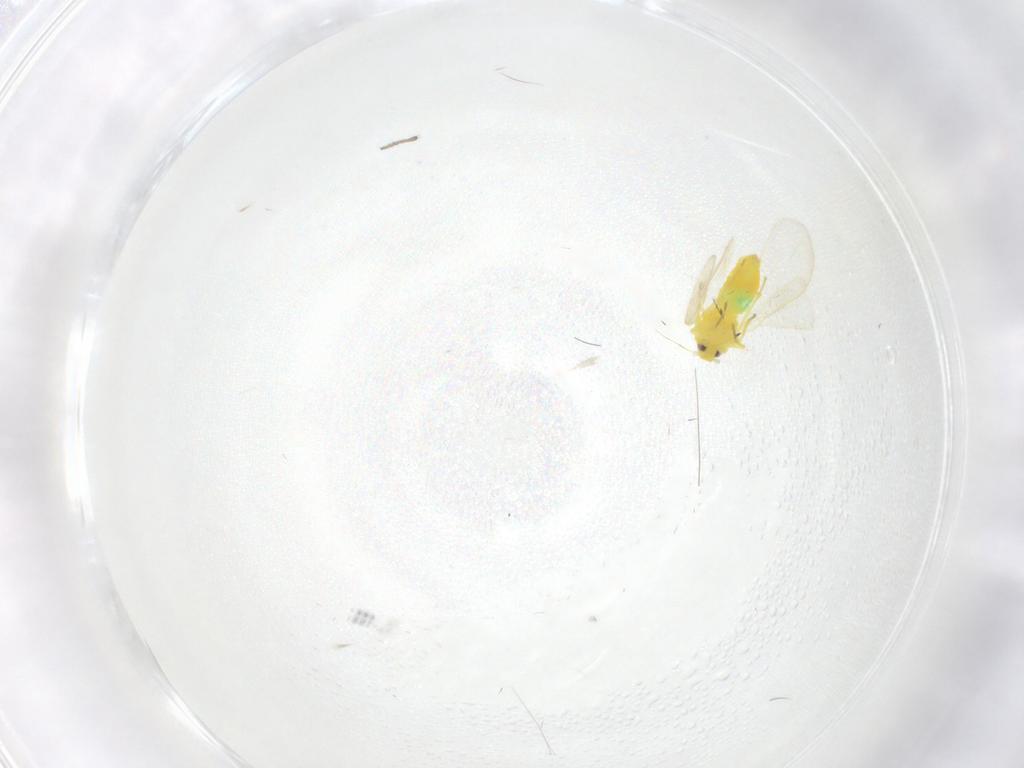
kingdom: Animalia
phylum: Arthropoda
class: Insecta
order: Hemiptera
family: Aleyrodidae
